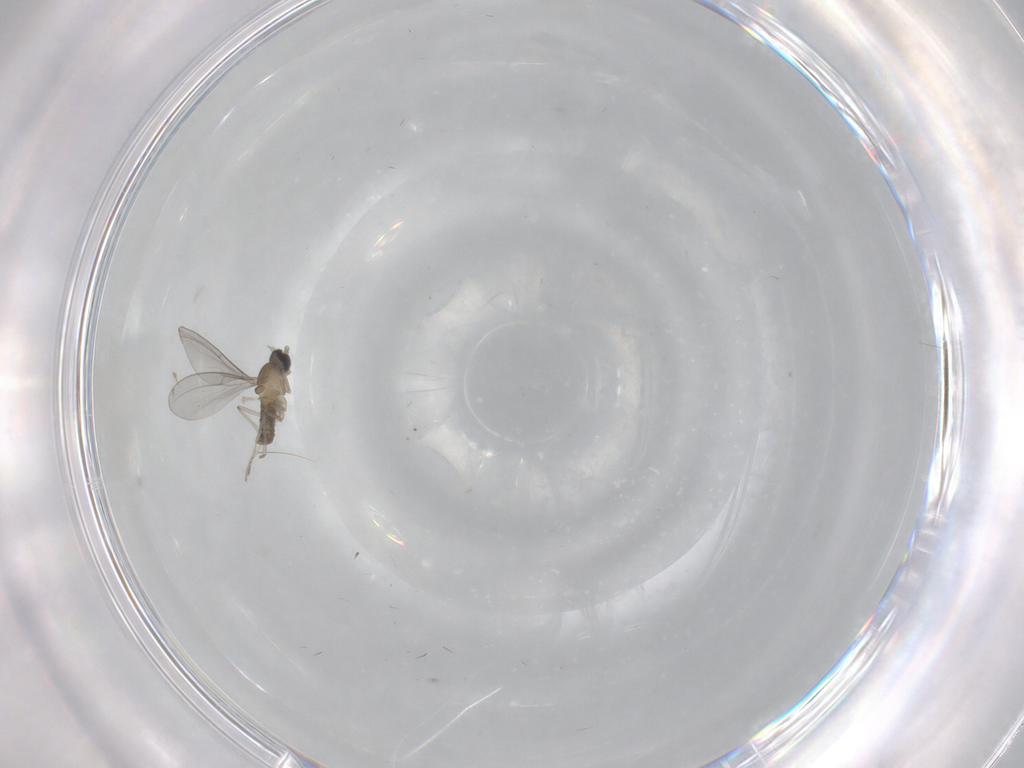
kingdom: Animalia
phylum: Arthropoda
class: Insecta
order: Diptera
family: Cecidomyiidae
